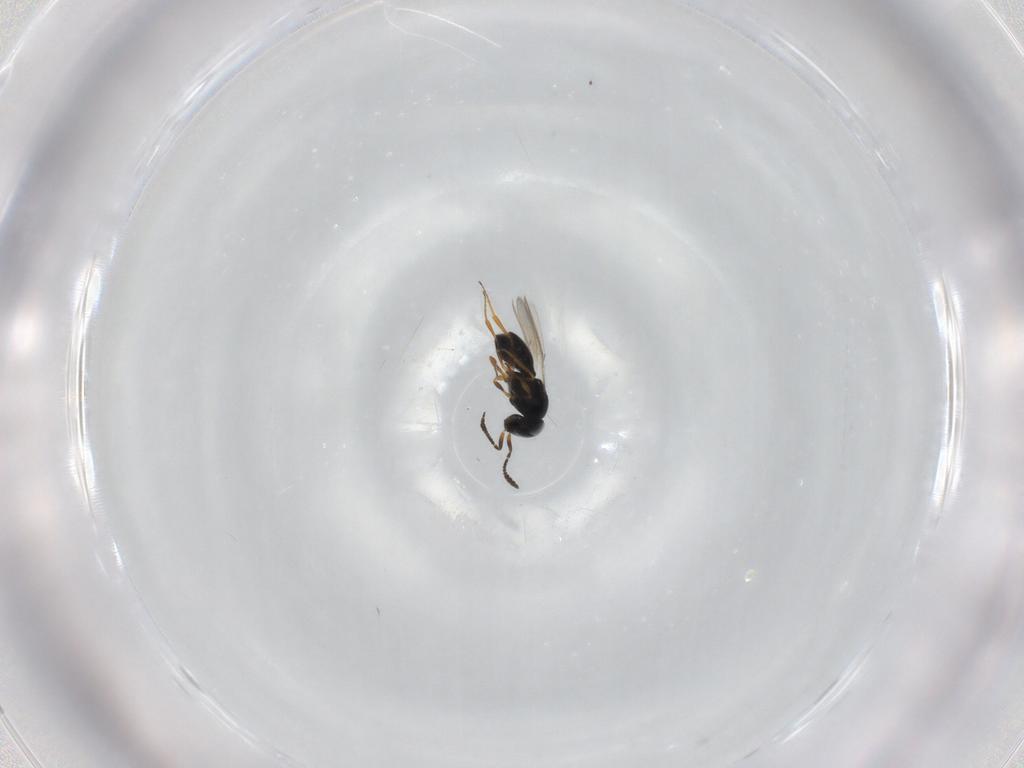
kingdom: Animalia
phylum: Arthropoda
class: Insecta
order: Hymenoptera
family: Scelionidae
